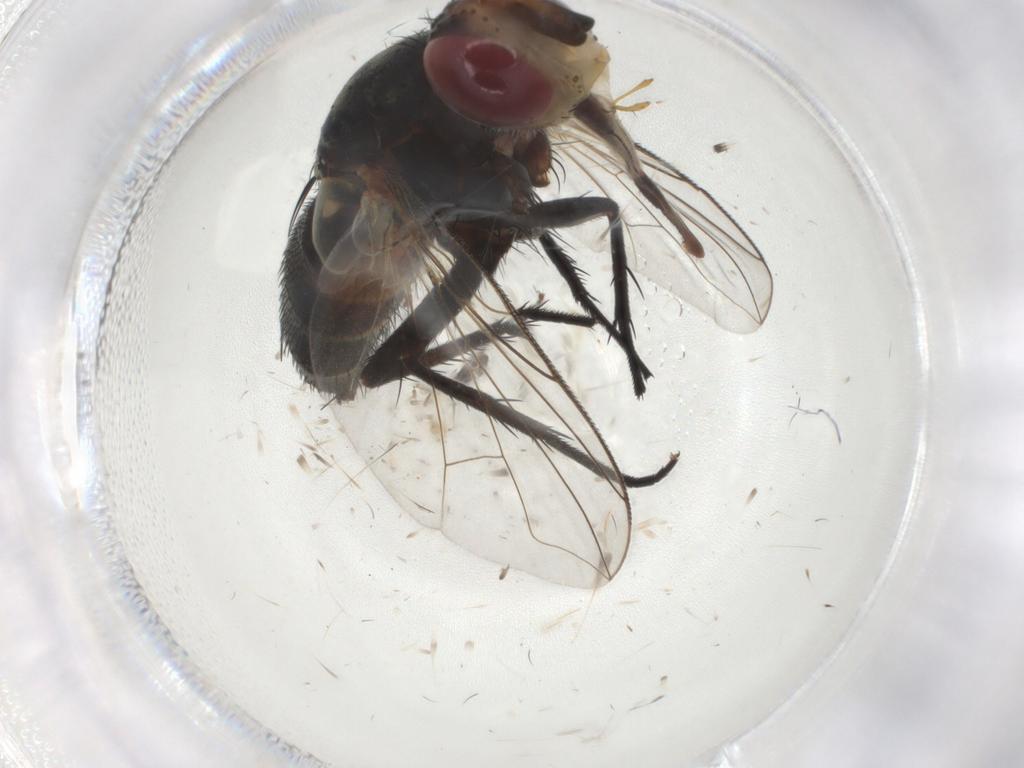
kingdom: Animalia
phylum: Arthropoda
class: Insecta
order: Diptera
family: Tachinidae
